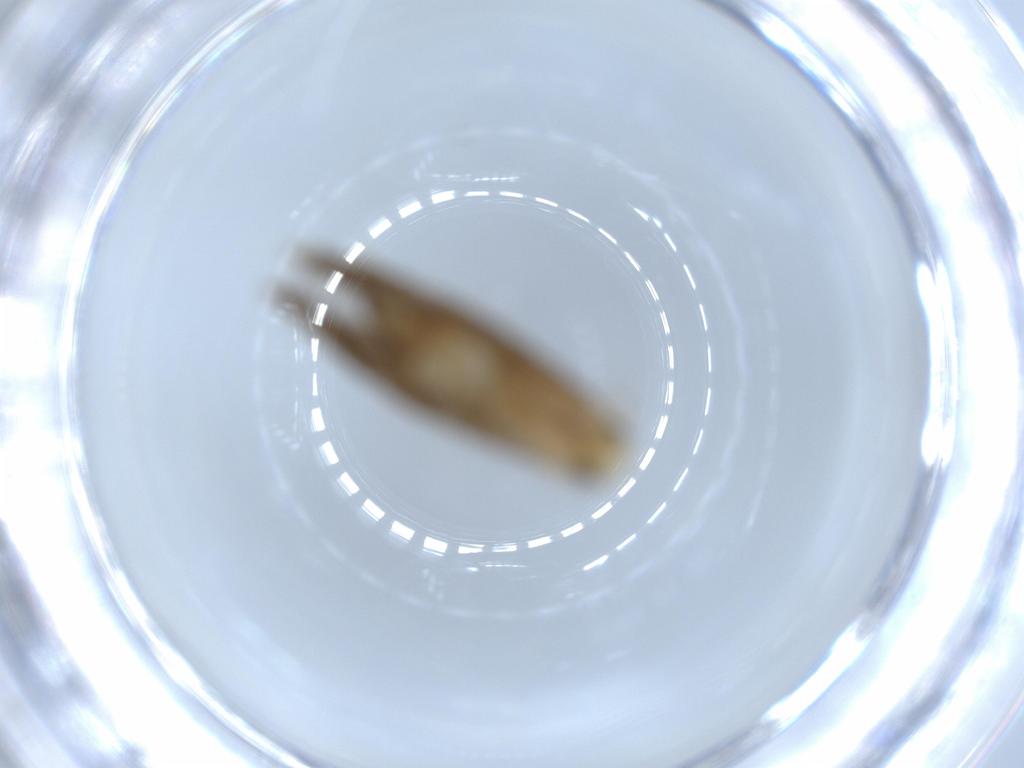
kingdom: Animalia
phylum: Arthropoda
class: Insecta
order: Lepidoptera
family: Tineidae
